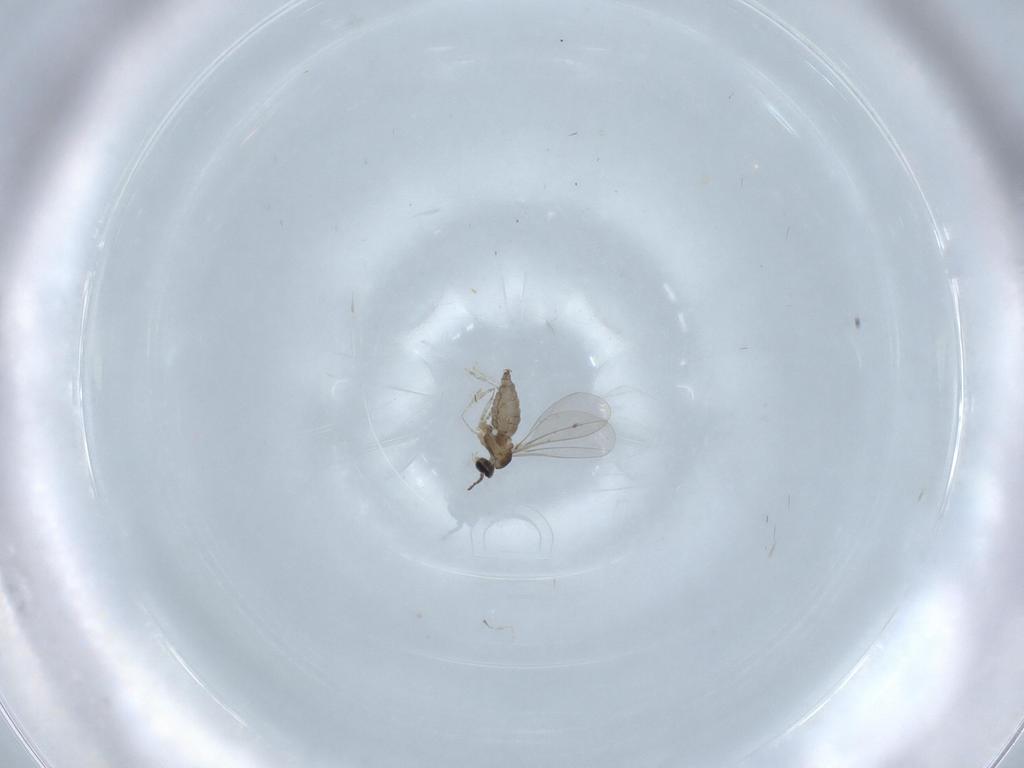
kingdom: Animalia
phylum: Arthropoda
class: Insecta
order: Diptera
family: Cecidomyiidae
